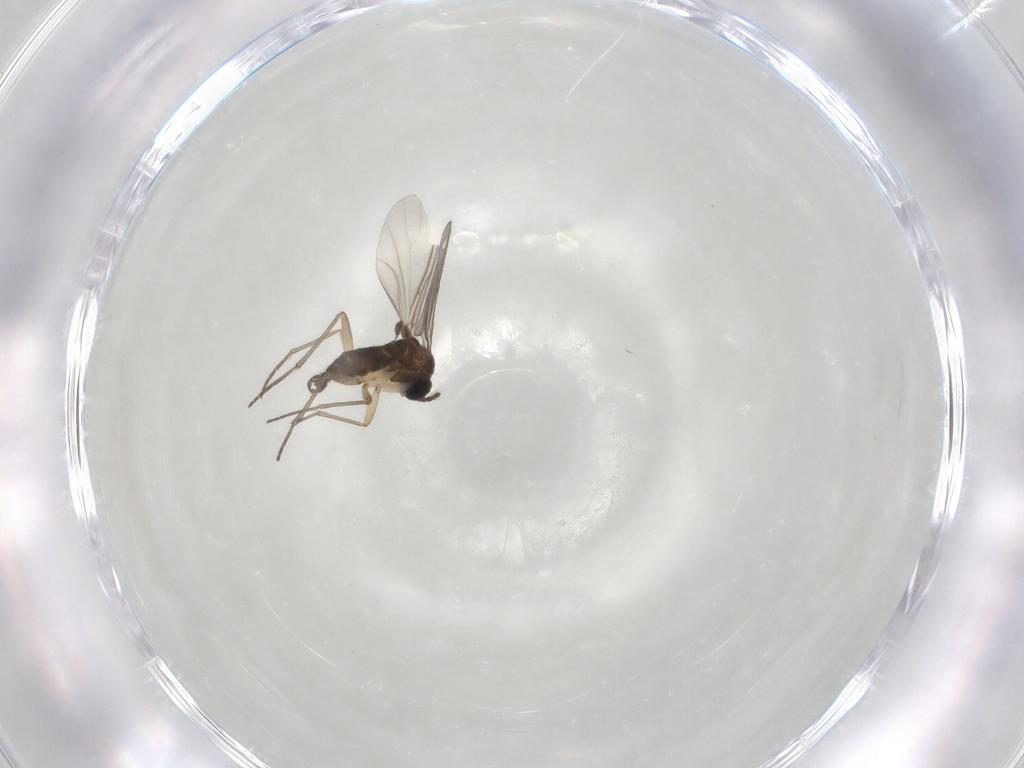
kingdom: Animalia
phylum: Arthropoda
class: Insecta
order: Diptera
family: Sciaridae
